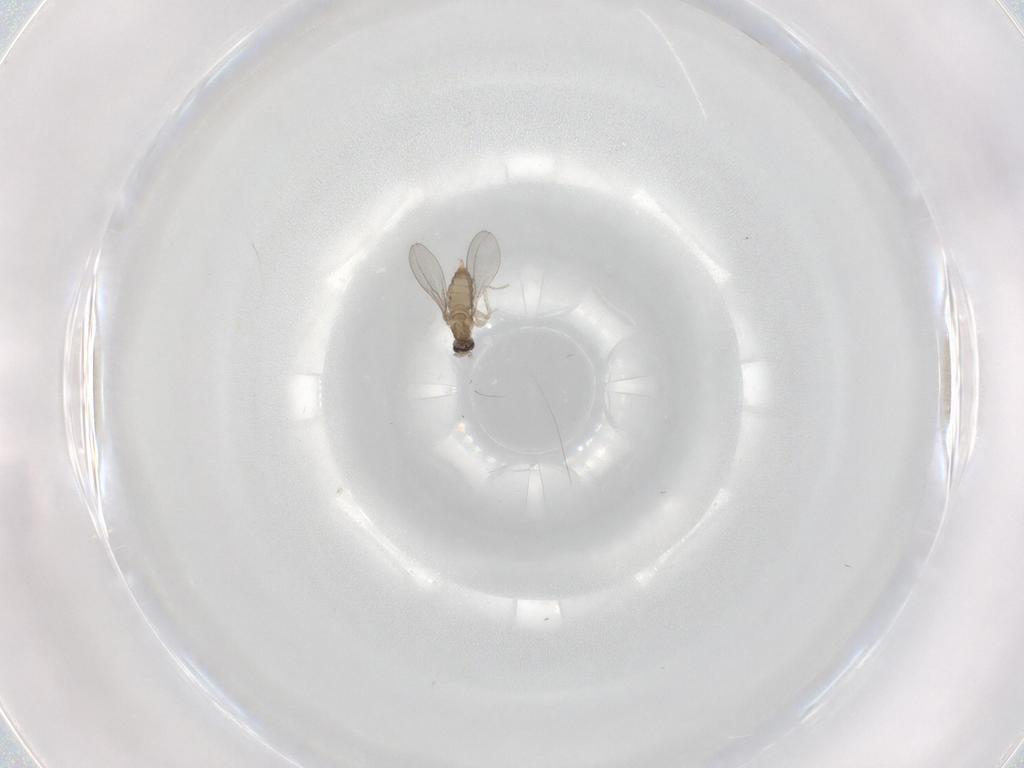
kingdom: Animalia
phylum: Arthropoda
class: Insecta
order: Diptera
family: Cecidomyiidae
